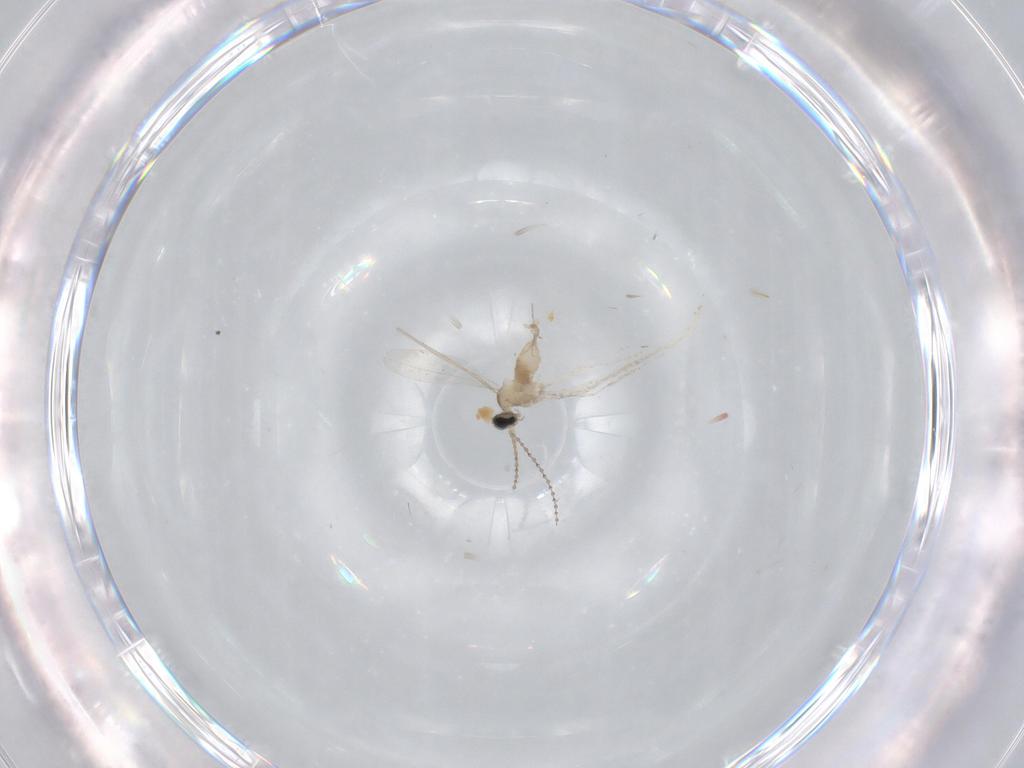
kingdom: Animalia
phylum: Arthropoda
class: Insecta
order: Diptera
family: Cecidomyiidae
